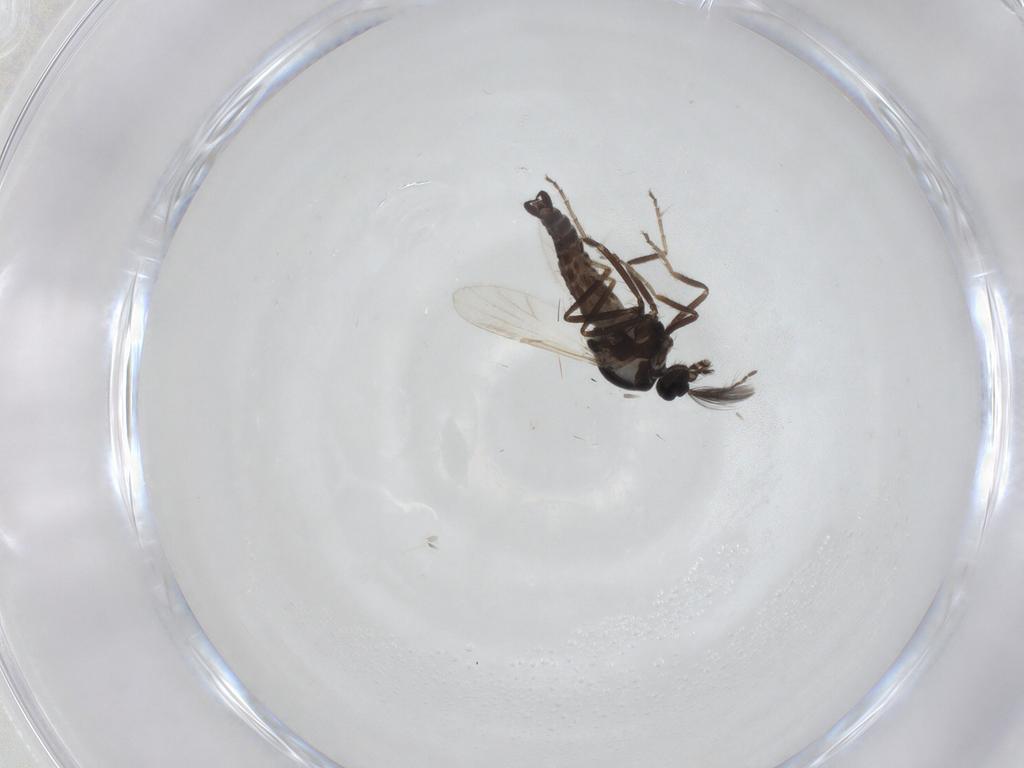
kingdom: Animalia
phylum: Arthropoda
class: Insecta
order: Diptera
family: Ceratopogonidae
